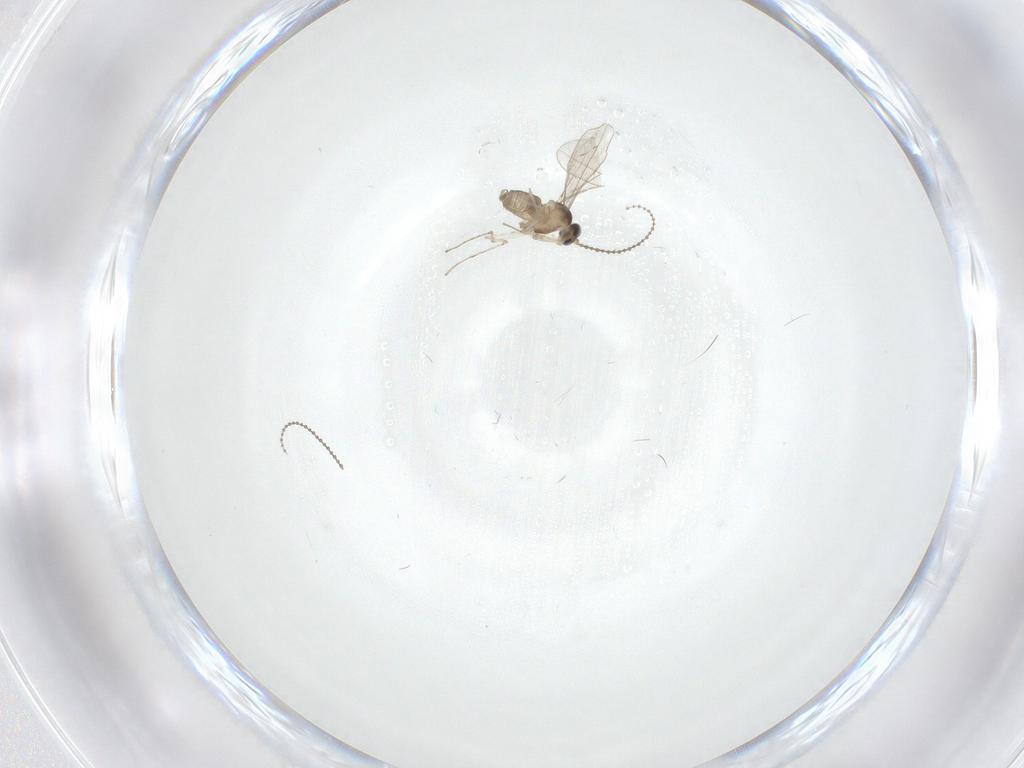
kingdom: Animalia
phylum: Arthropoda
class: Insecta
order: Diptera
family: Cecidomyiidae
